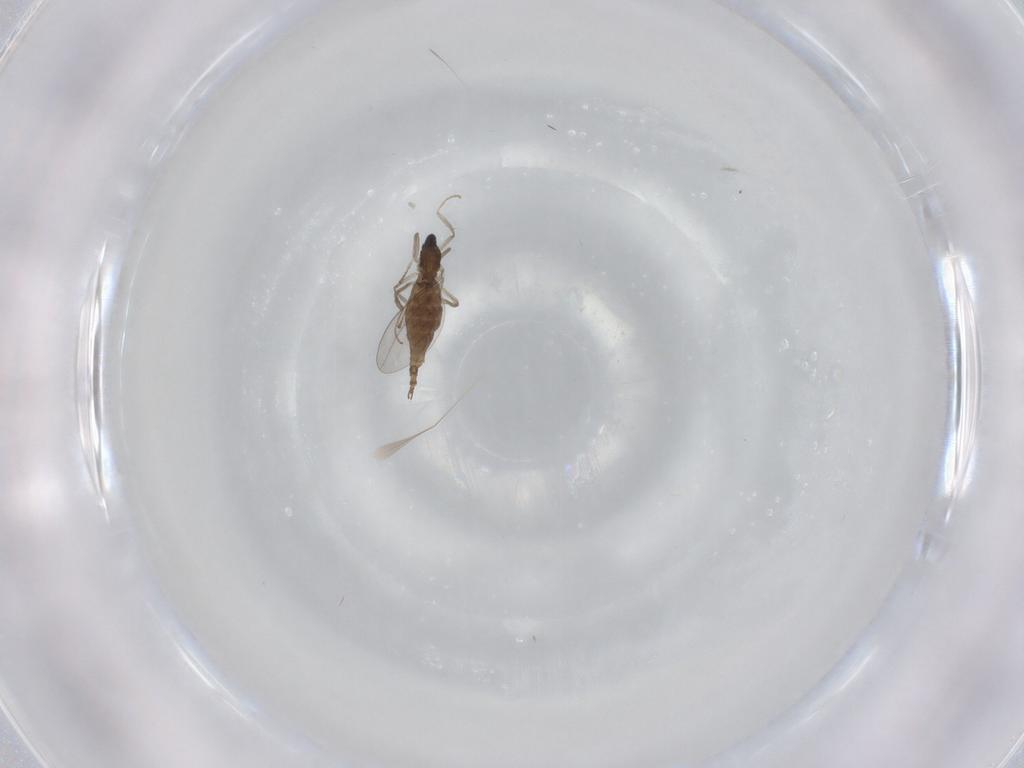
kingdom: Animalia
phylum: Arthropoda
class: Insecta
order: Diptera
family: Cecidomyiidae
